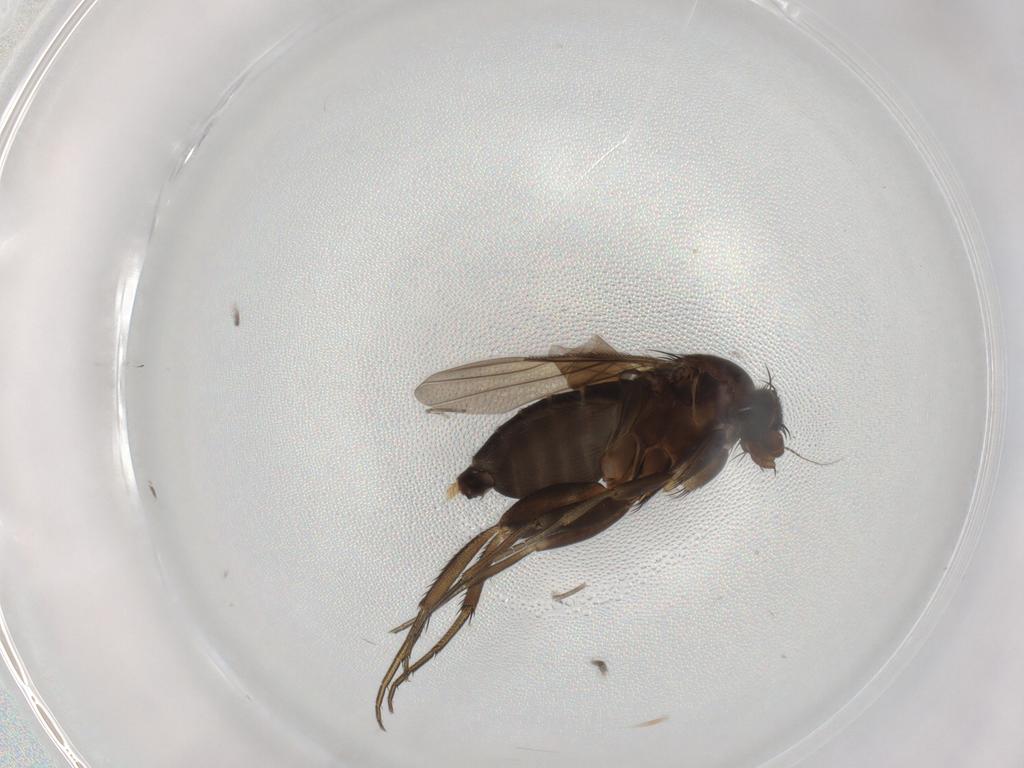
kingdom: Animalia
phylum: Arthropoda
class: Insecta
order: Diptera
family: Phoridae
